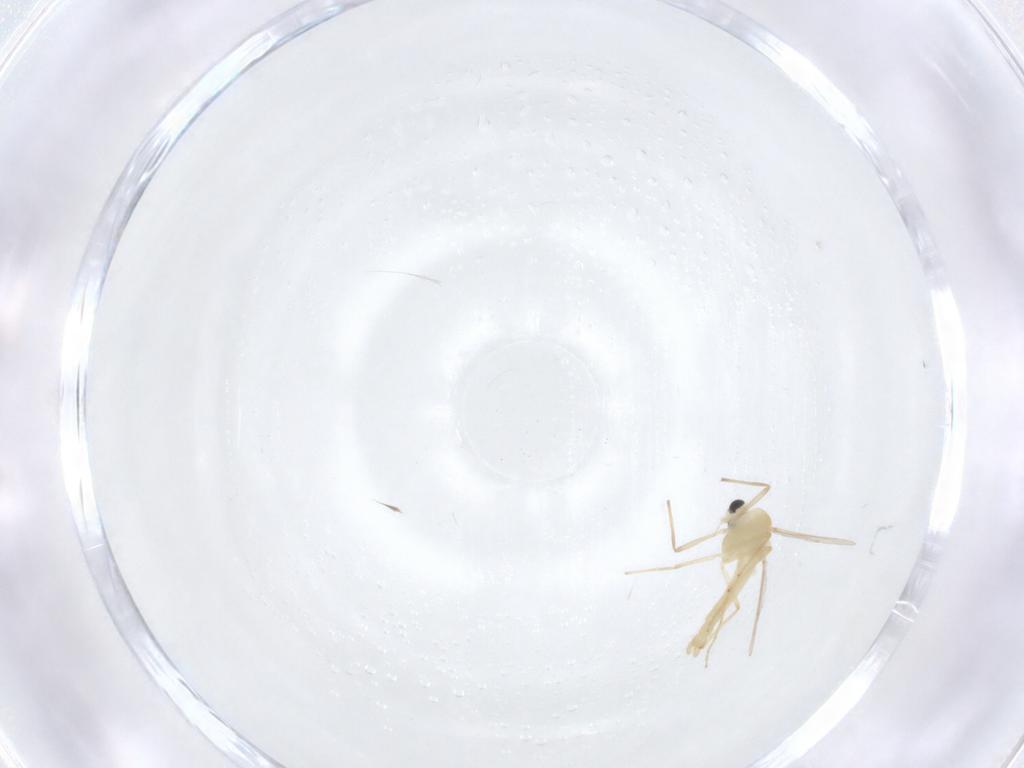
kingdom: Animalia
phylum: Arthropoda
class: Insecta
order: Diptera
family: Chironomidae
